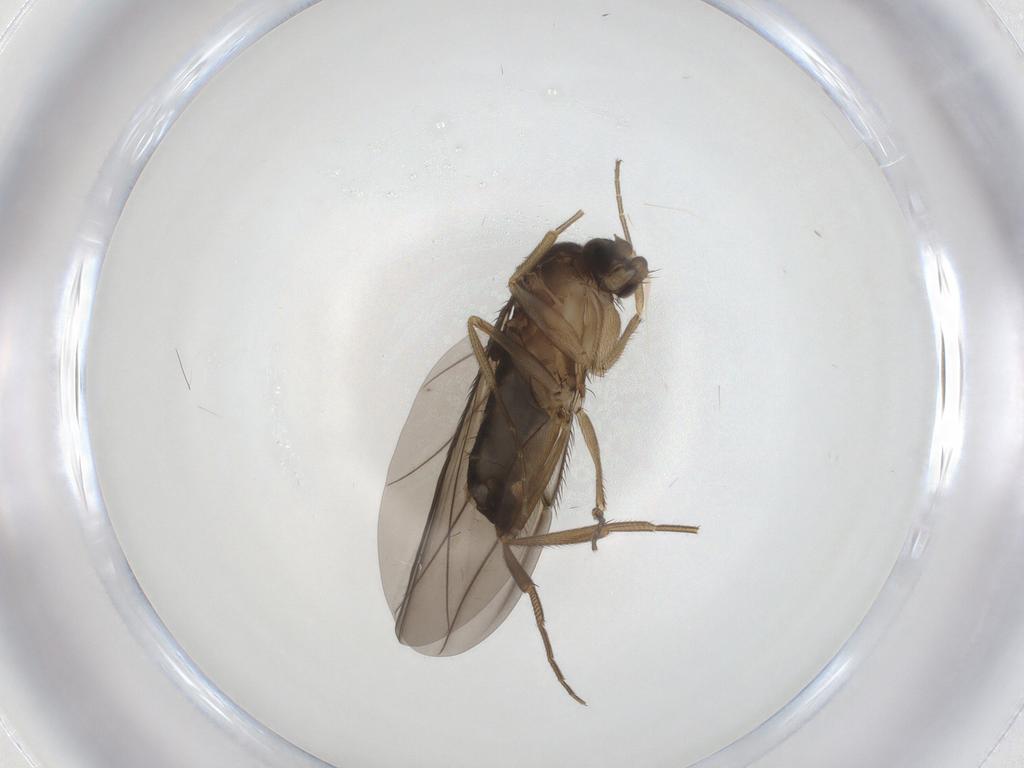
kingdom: Animalia
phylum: Arthropoda
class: Insecta
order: Diptera
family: Phoridae
